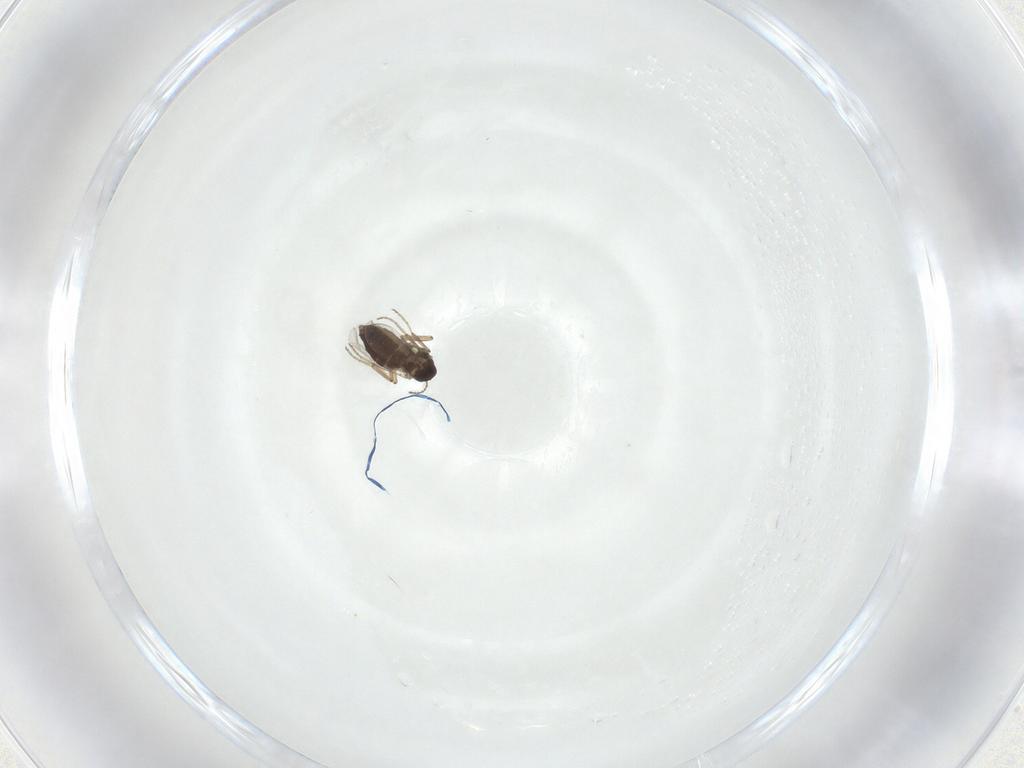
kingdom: Animalia
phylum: Arthropoda
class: Insecta
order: Diptera
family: Ceratopogonidae
